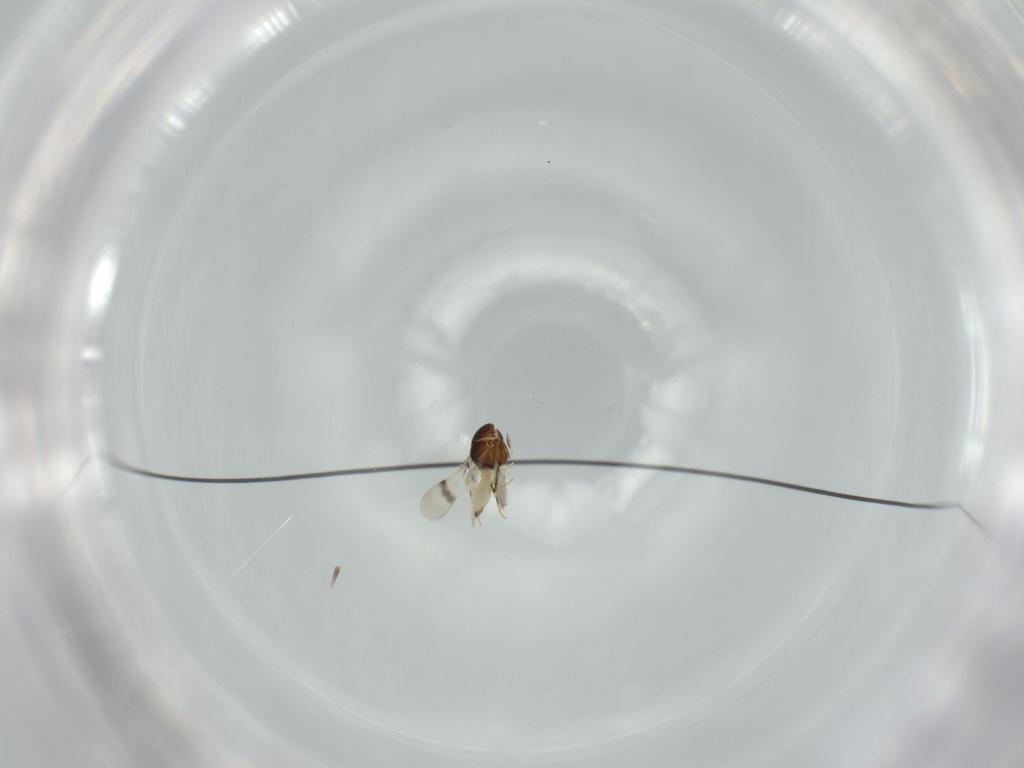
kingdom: Animalia
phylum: Arthropoda
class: Insecta
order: Hymenoptera
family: Scelionidae
